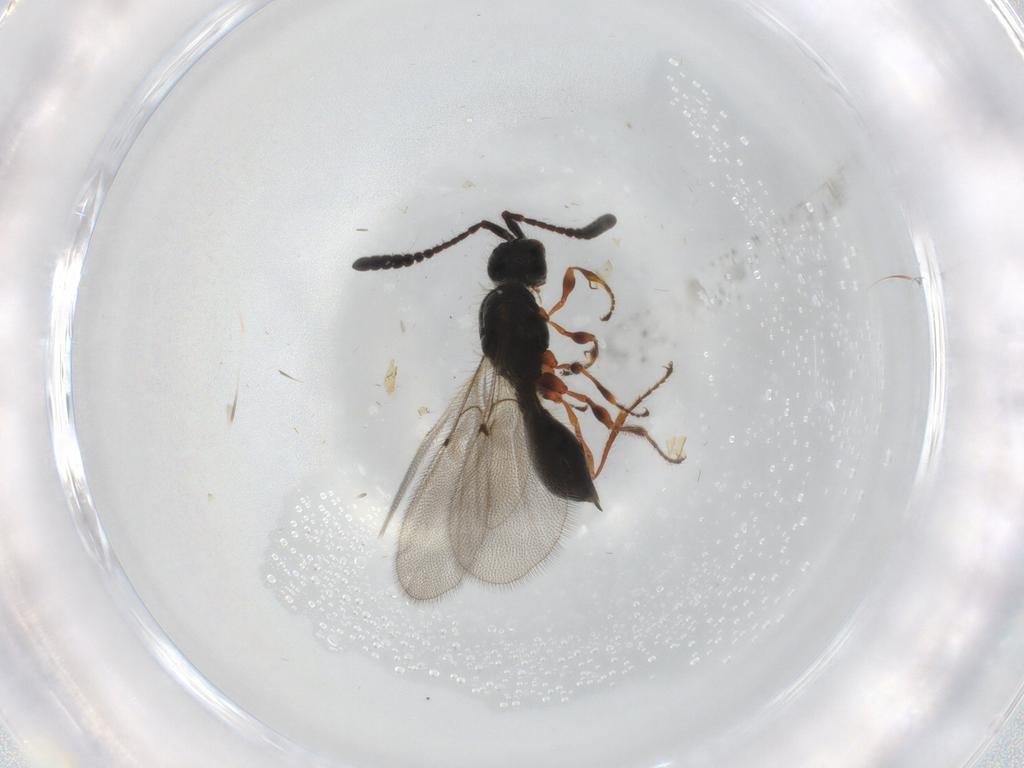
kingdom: Animalia
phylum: Arthropoda
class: Insecta
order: Hymenoptera
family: Diapriidae
